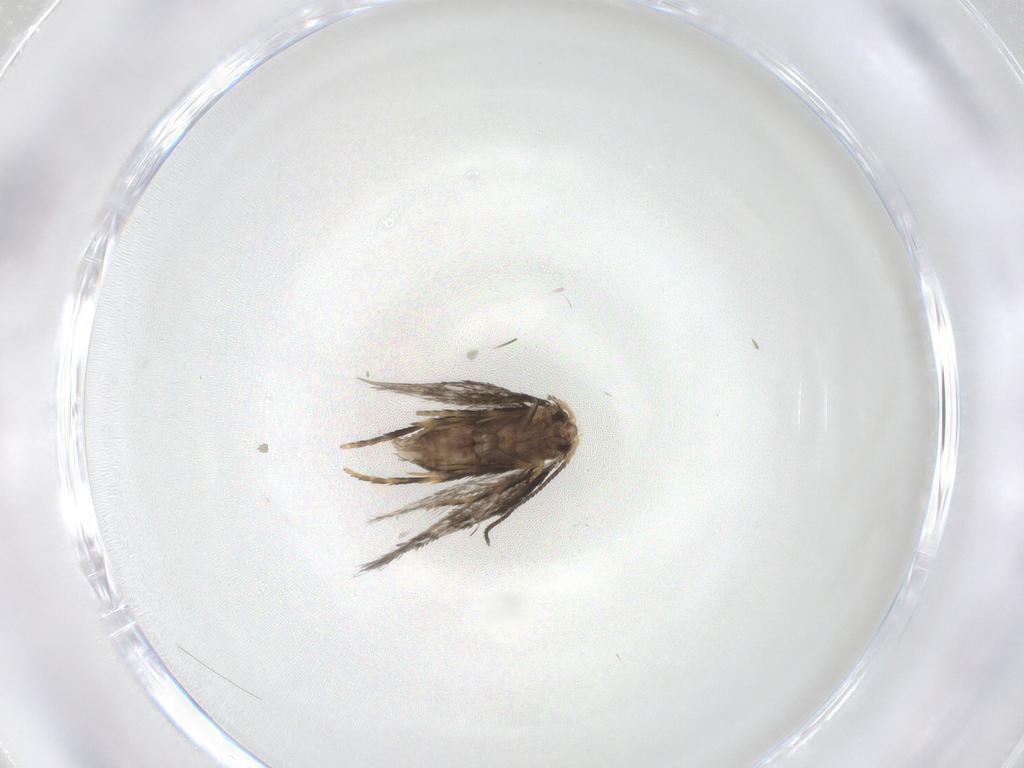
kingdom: Animalia
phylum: Arthropoda
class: Insecta
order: Lepidoptera
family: Nepticulidae
